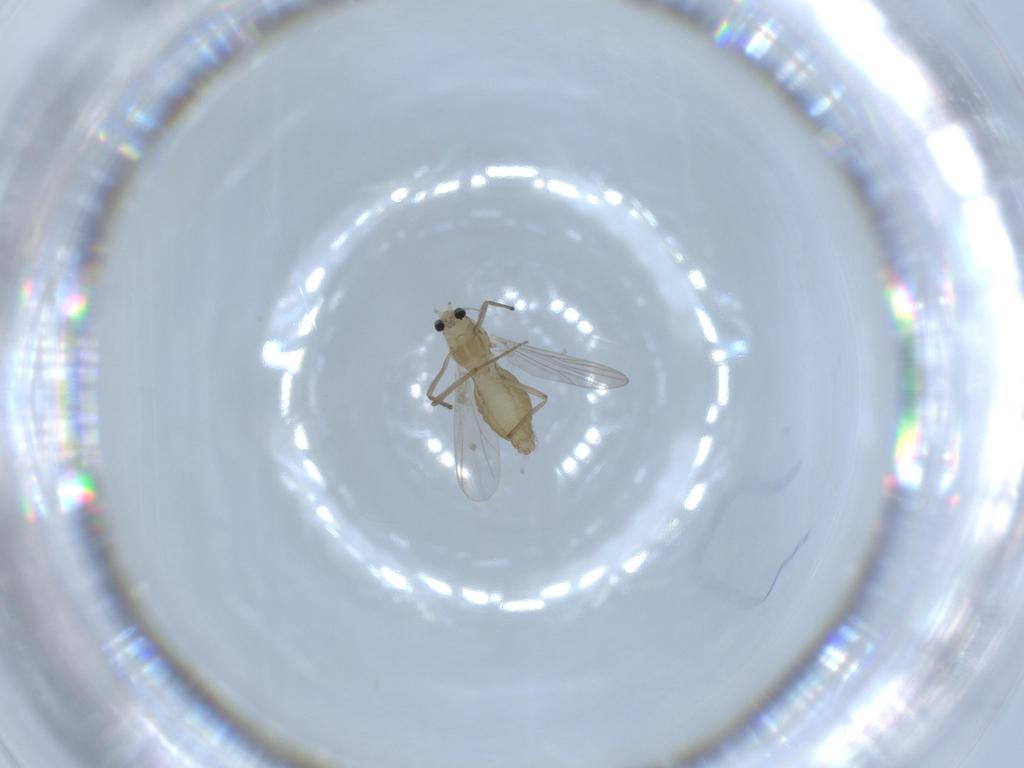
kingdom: Animalia
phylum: Arthropoda
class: Insecta
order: Diptera
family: Chironomidae
